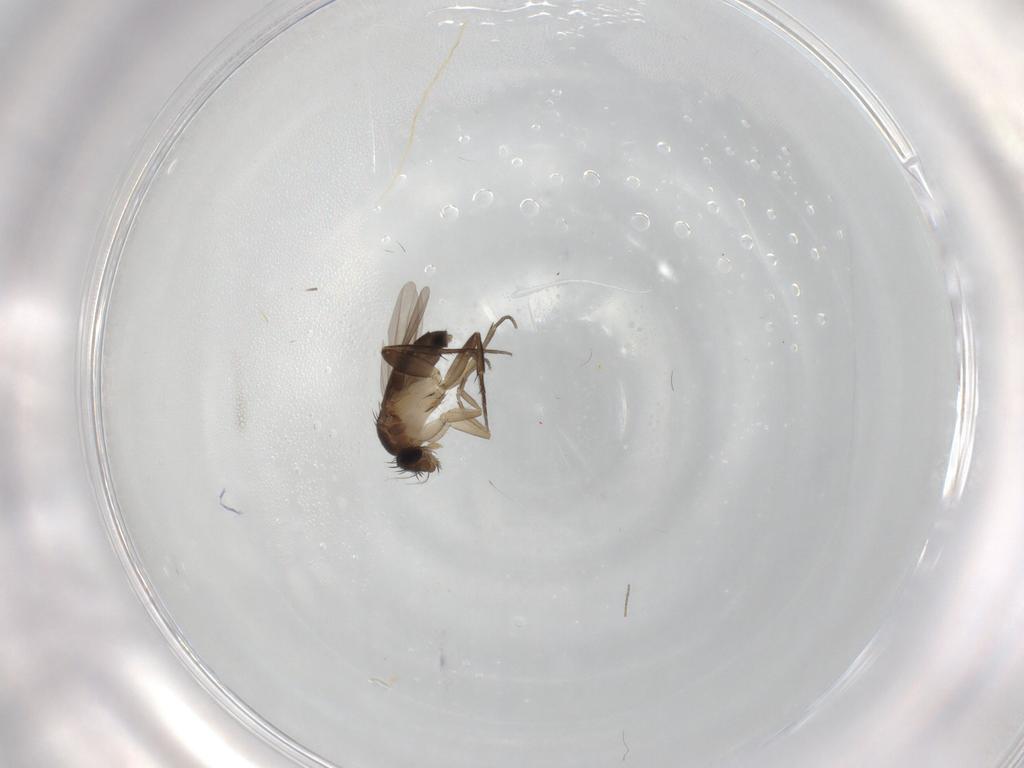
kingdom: Animalia
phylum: Arthropoda
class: Insecta
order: Diptera
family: Phoridae
